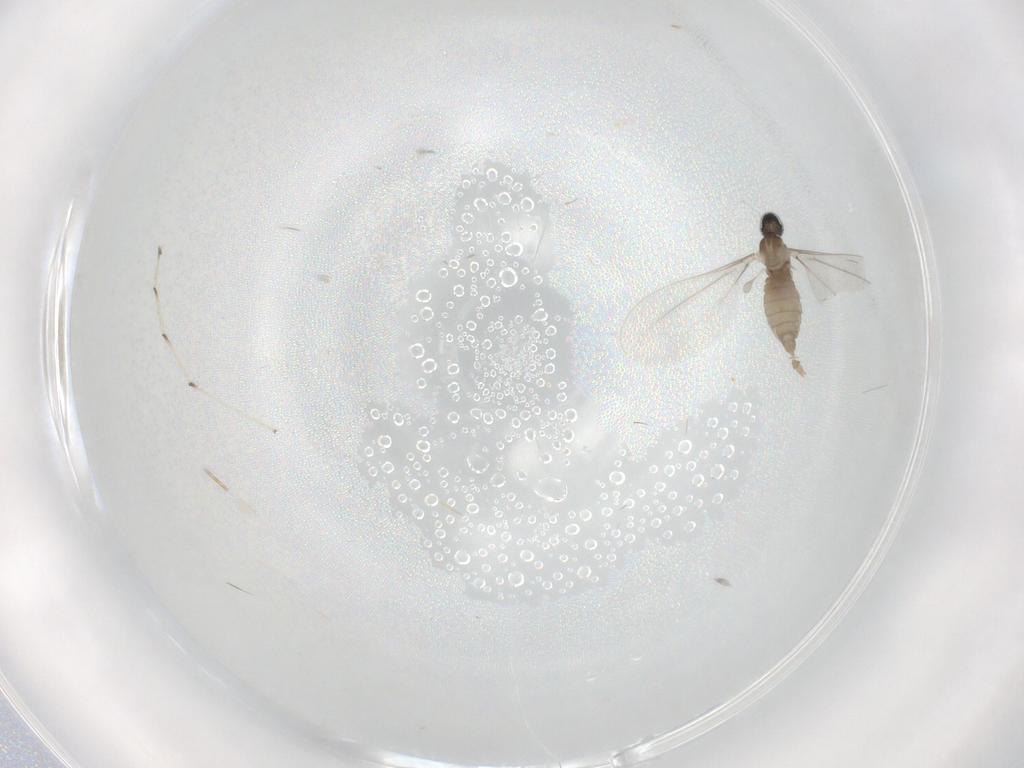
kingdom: Animalia
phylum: Arthropoda
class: Insecta
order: Diptera
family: Chironomidae
